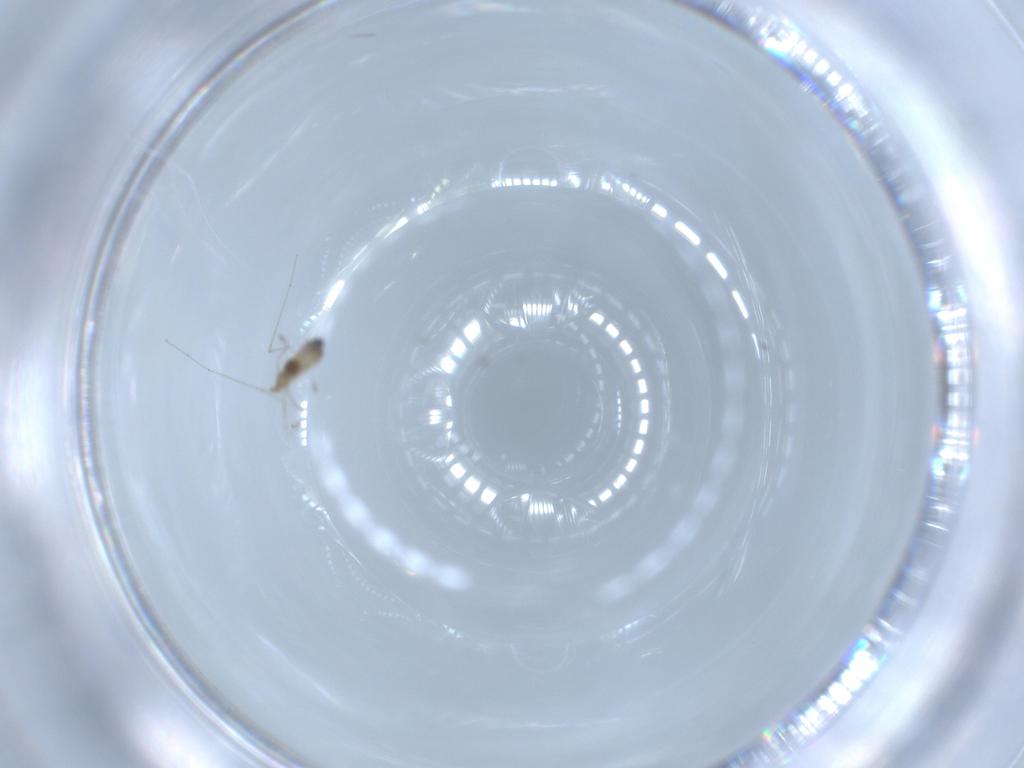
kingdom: Animalia
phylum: Arthropoda
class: Insecta
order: Diptera
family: Cecidomyiidae
